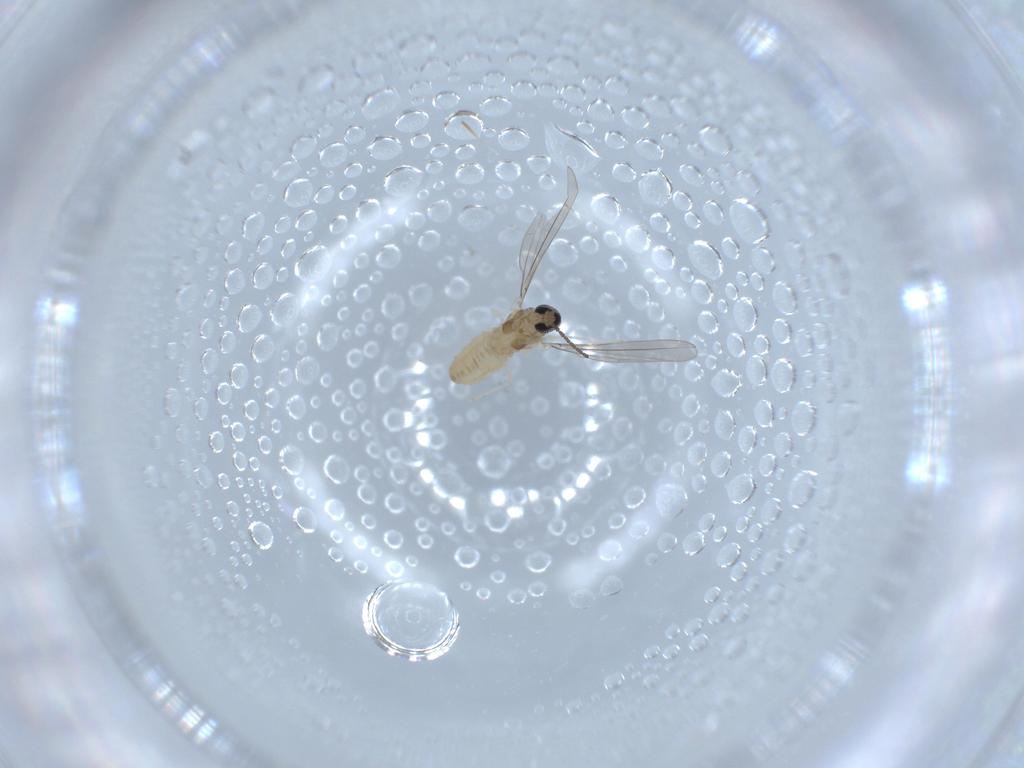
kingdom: Animalia
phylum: Arthropoda
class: Insecta
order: Diptera
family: Cecidomyiidae
